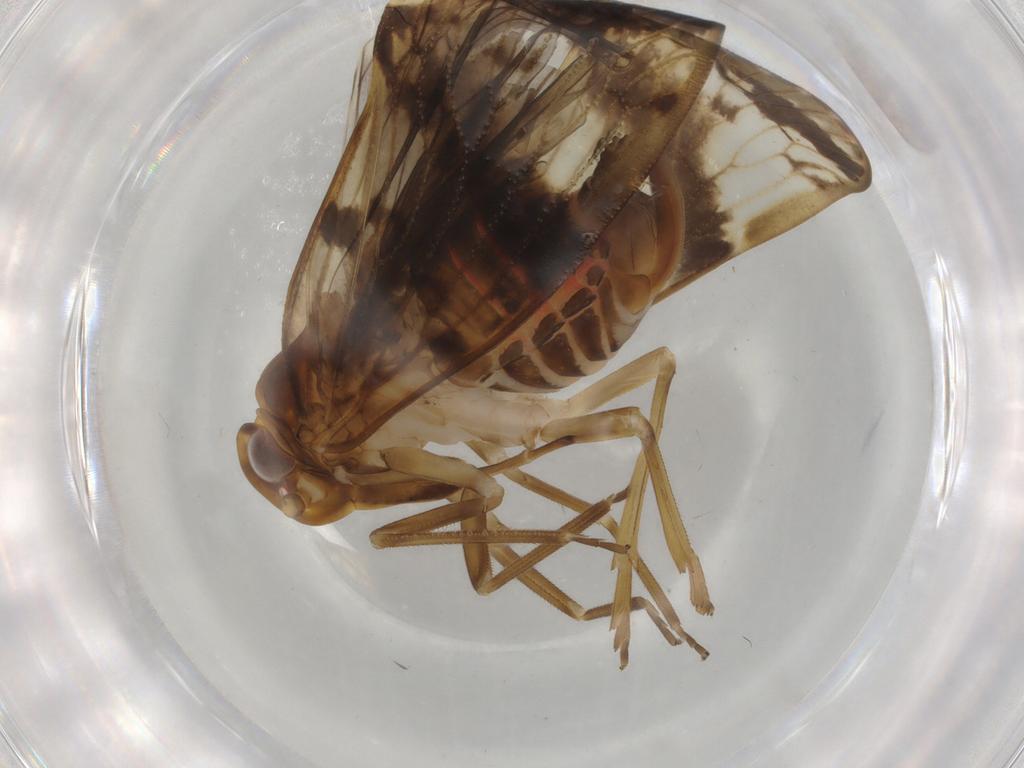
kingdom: Animalia
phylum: Arthropoda
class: Insecta
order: Hemiptera
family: Cixiidae
